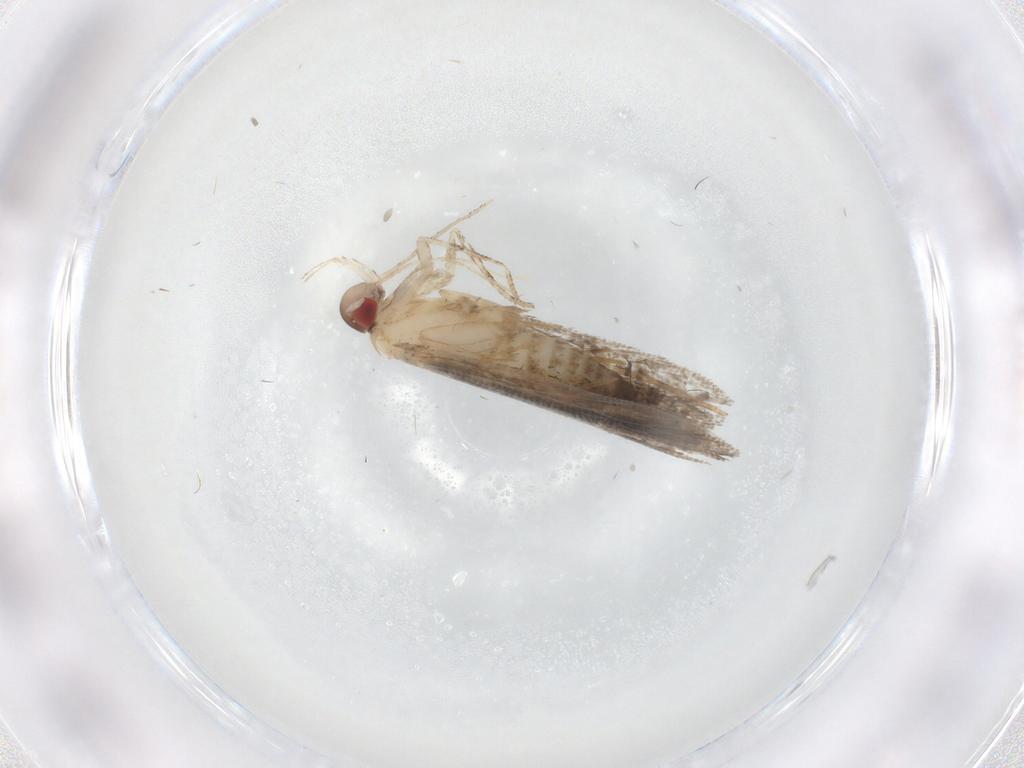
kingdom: Animalia
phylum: Arthropoda
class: Insecta
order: Lepidoptera
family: Gelechiidae
